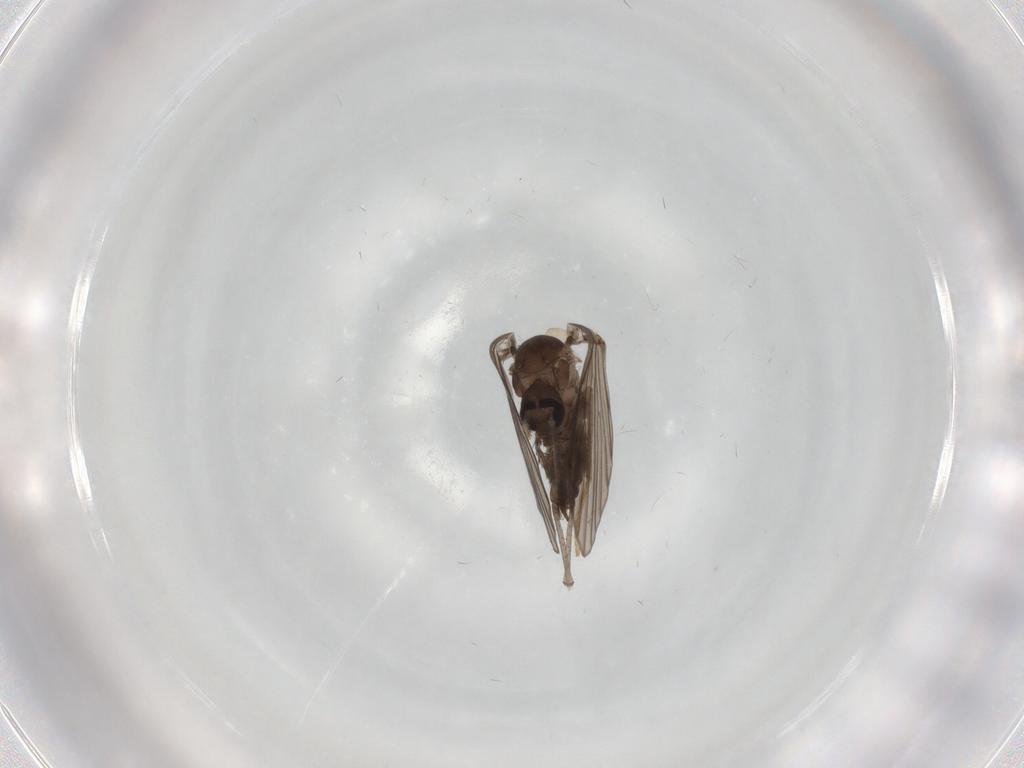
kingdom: Animalia
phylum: Arthropoda
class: Insecta
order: Diptera
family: Psychodidae
